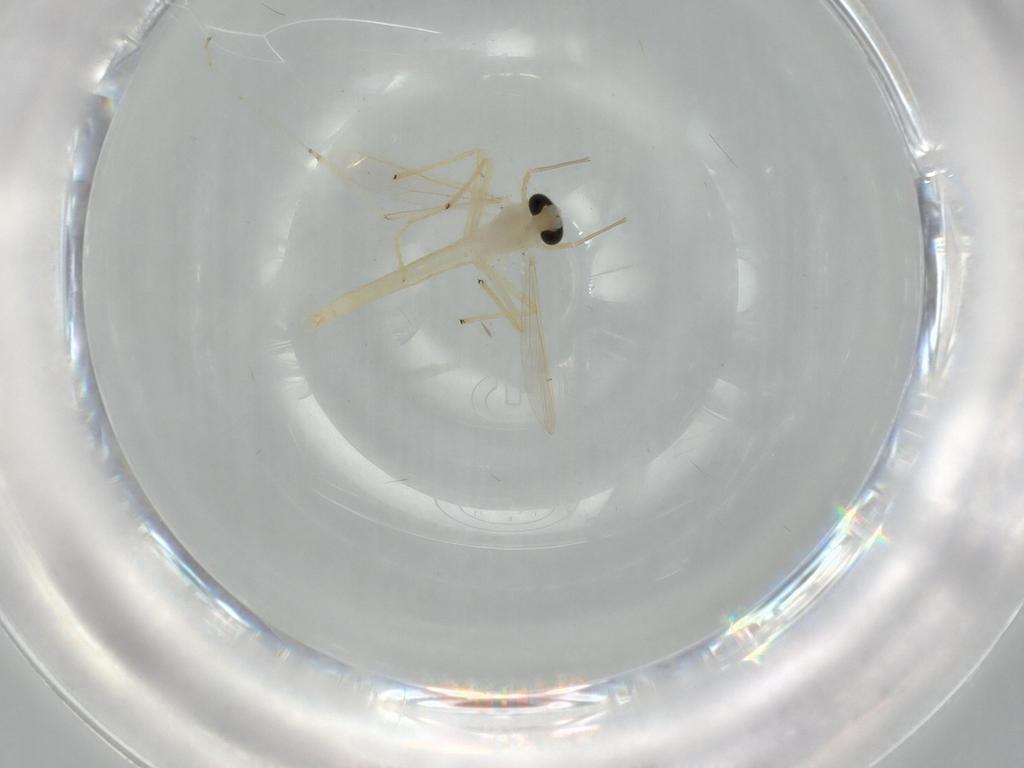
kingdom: Animalia
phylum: Arthropoda
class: Insecta
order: Diptera
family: Chironomidae
